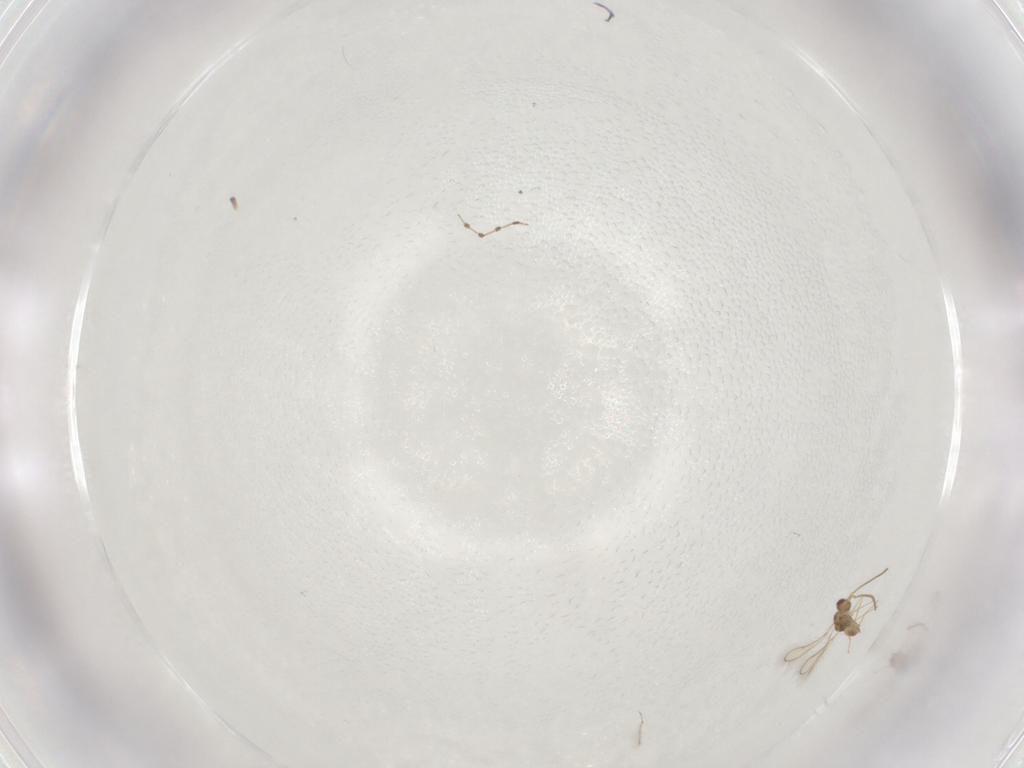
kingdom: Animalia
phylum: Arthropoda
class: Insecta
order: Hymenoptera
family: Mymaridae
